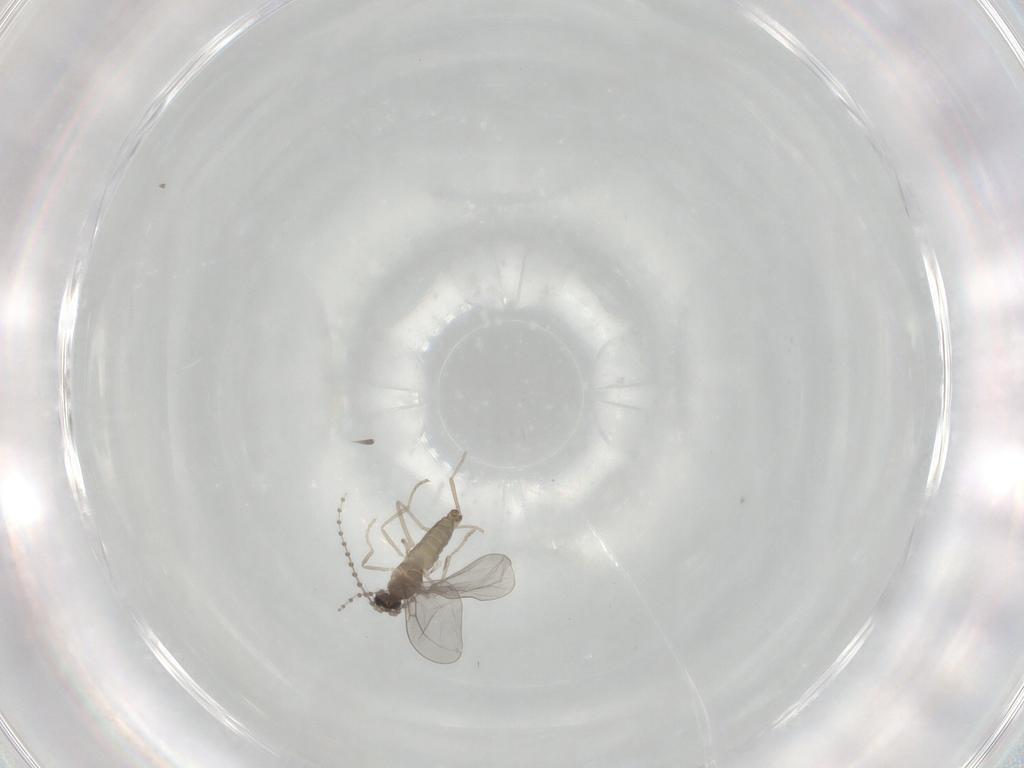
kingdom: Animalia
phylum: Arthropoda
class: Insecta
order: Diptera
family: Cecidomyiidae
